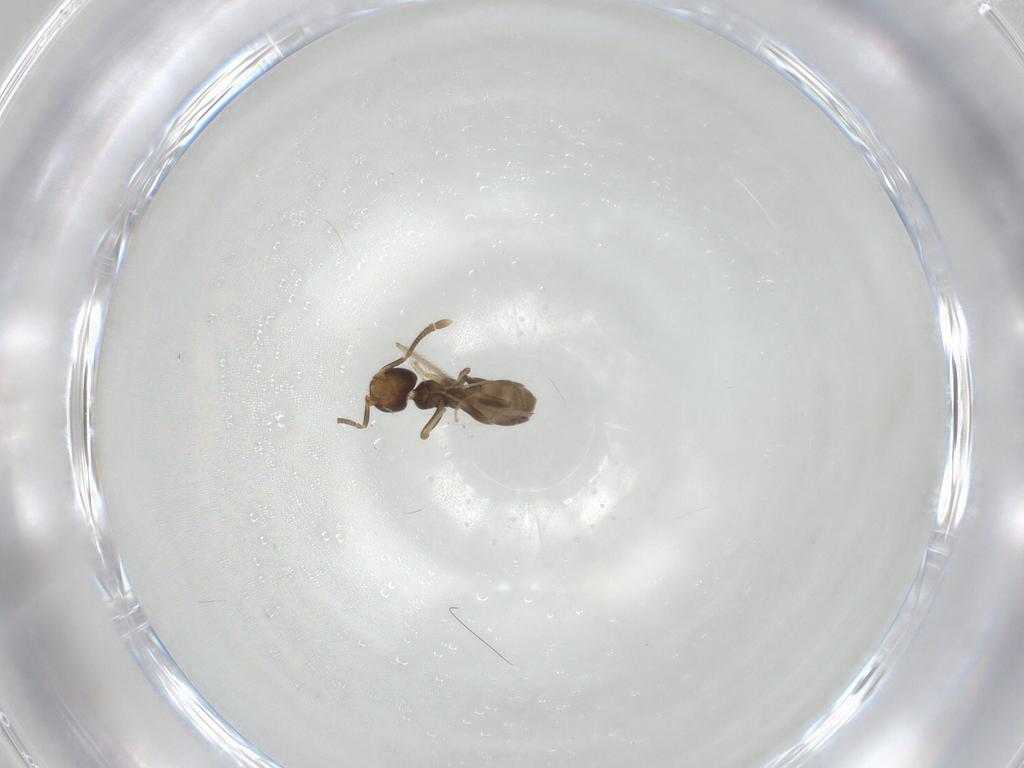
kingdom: Animalia
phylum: Arthropoda
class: Insecta
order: Hymenoptera
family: Formicidae
